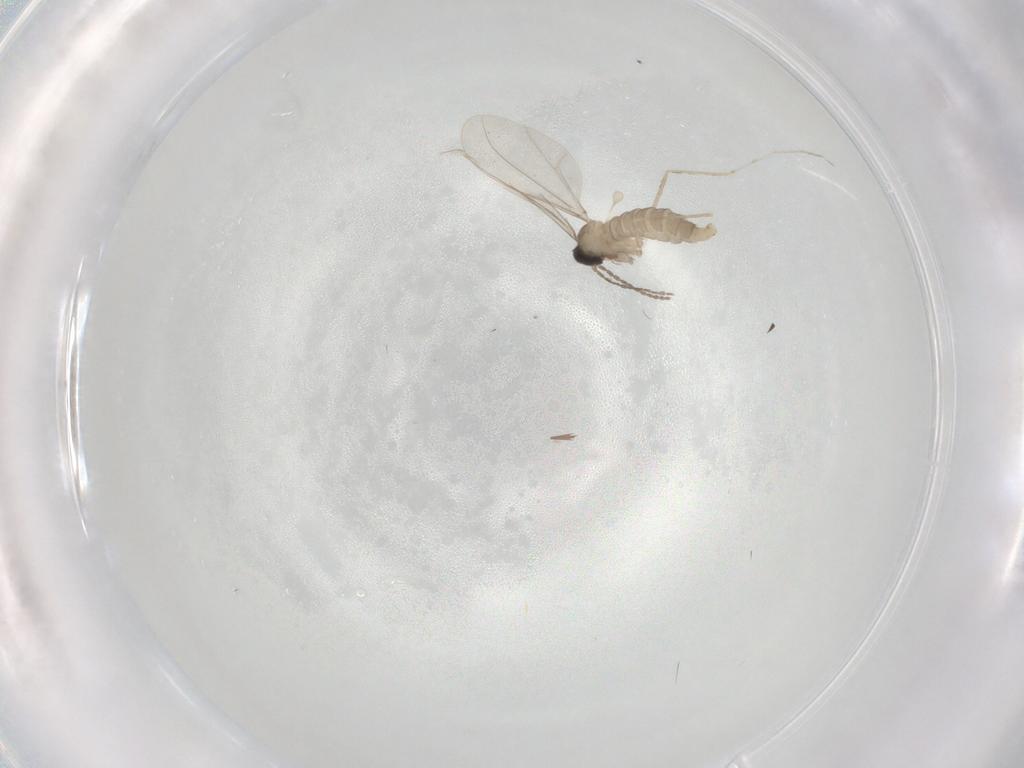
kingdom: Animalia
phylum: Arthropoda
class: Insecta
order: Diptera
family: Cecidomyiidae
